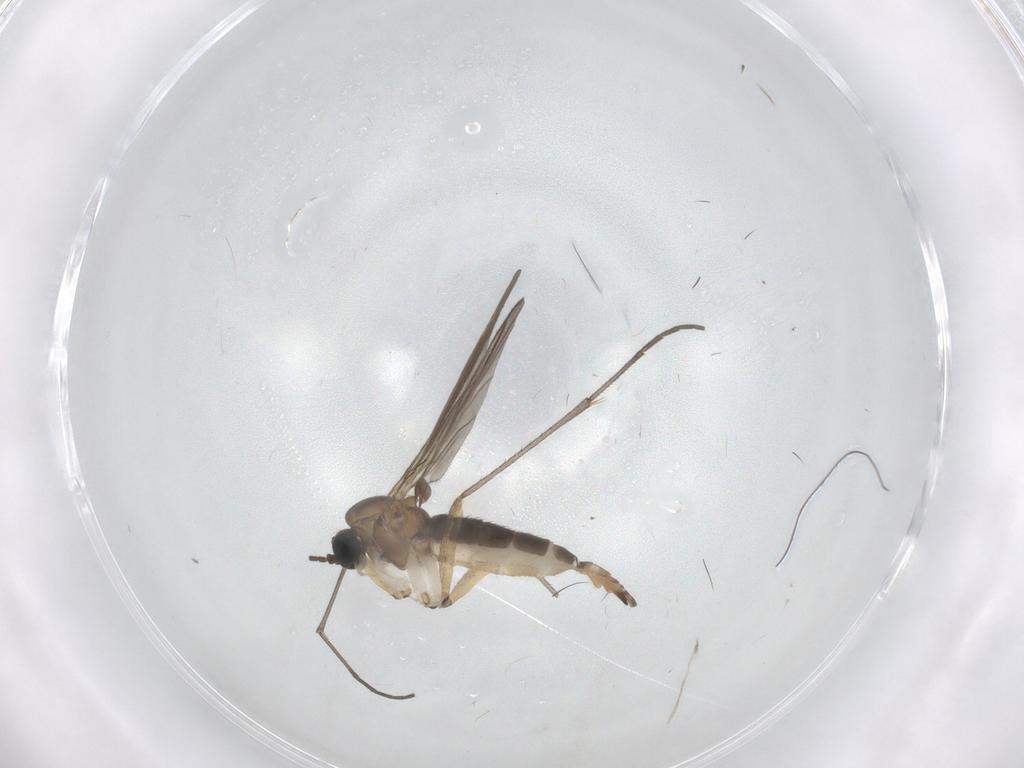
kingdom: Animalia
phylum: Arthropoda
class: Insecta
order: Diptera
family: Sciaridae
